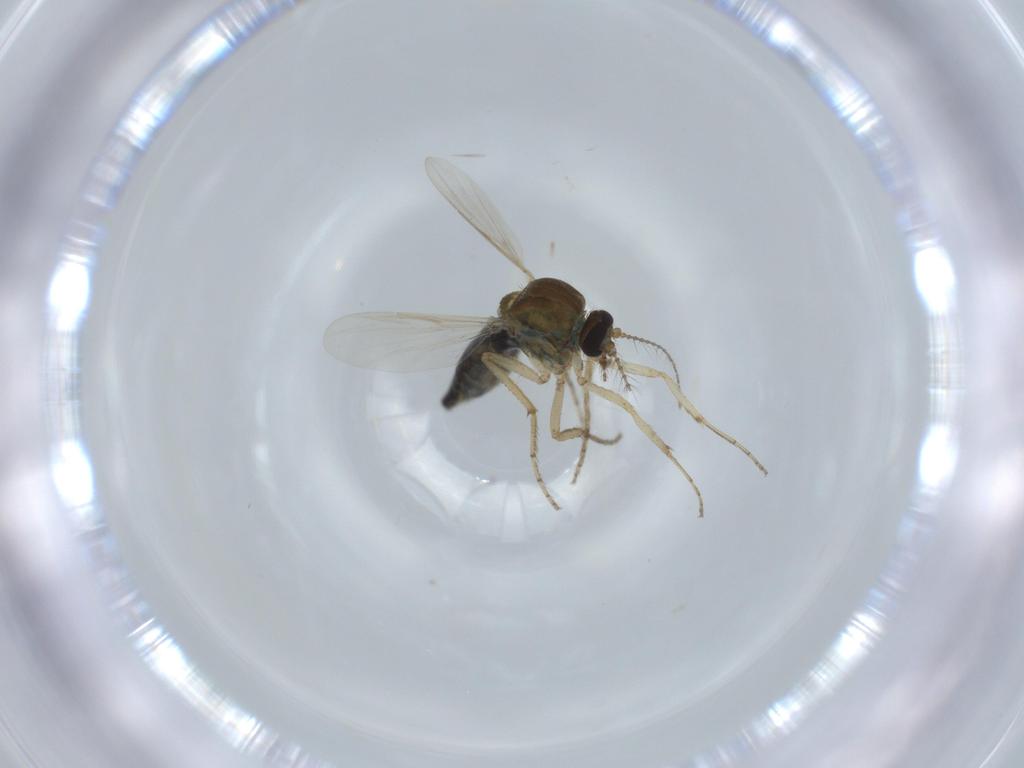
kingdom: Animalia
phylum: Arthropoda
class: Insecta
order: Diptera
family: Ceratopogonidae
